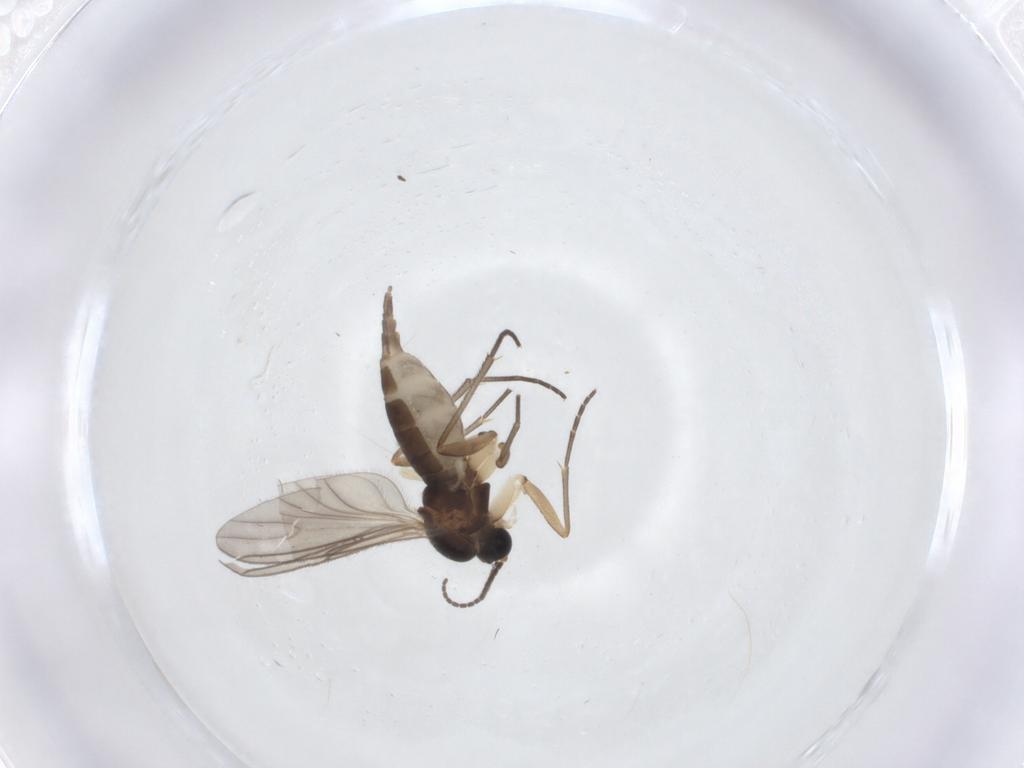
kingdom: Animalia
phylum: Arthropoda
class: Insecta
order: Diptera
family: Sciaridae
